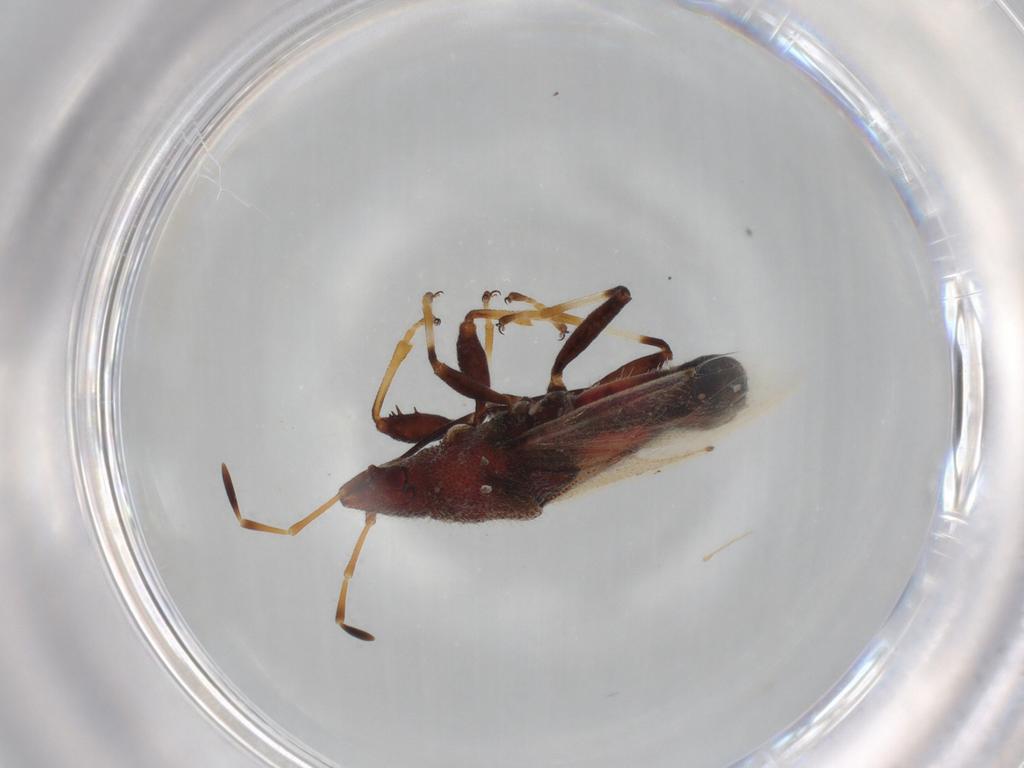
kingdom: Animalia
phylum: Arthropoda
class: Insecta
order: Hemiptera
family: Oxycarenidae
